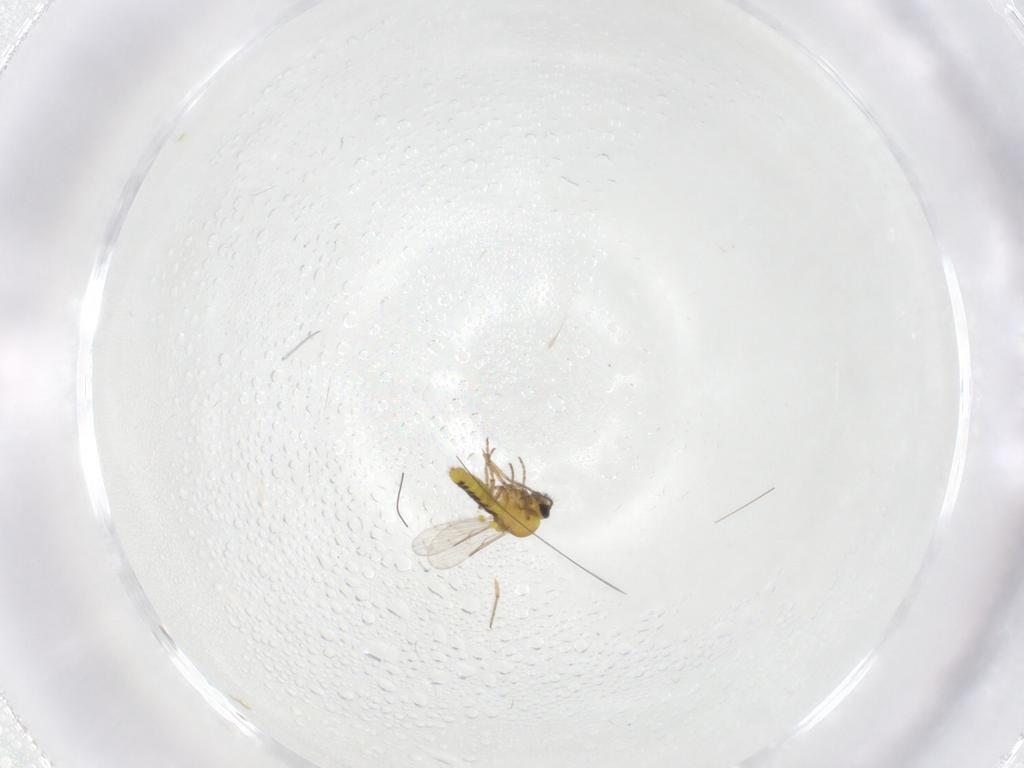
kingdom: Animalia
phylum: Arthropoda
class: Insecta
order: Diptera
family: Ceratopogonidae
